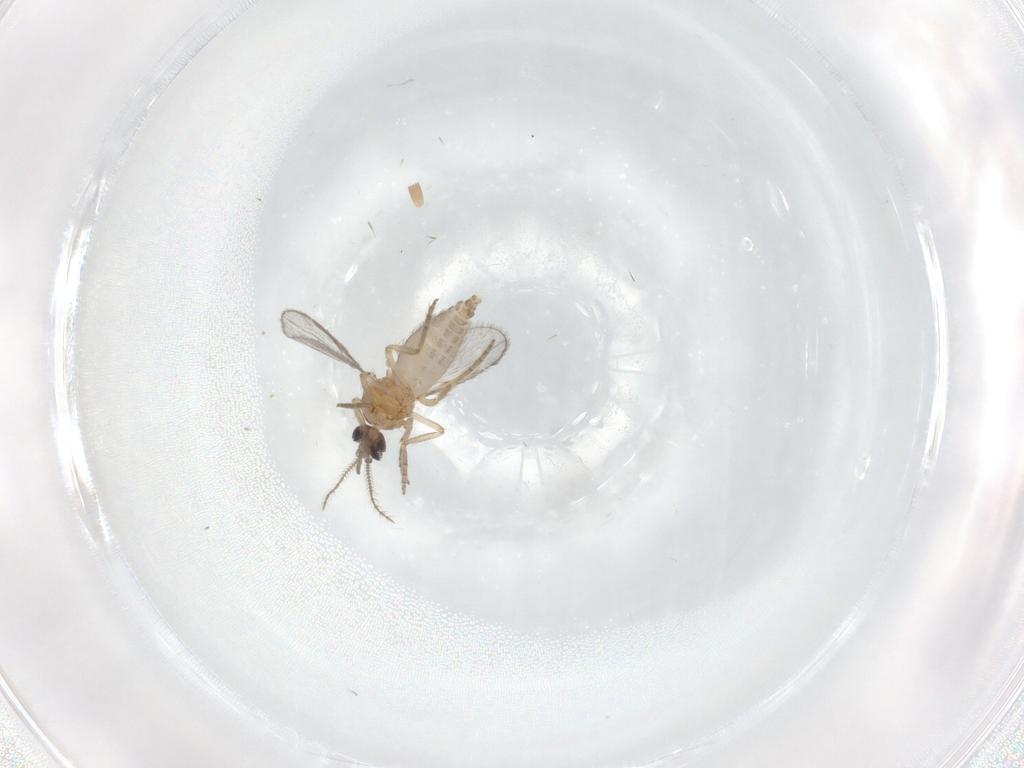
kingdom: Animalia
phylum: Arthropoda
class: Insecta
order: Diptera
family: Ceratopogonidae
